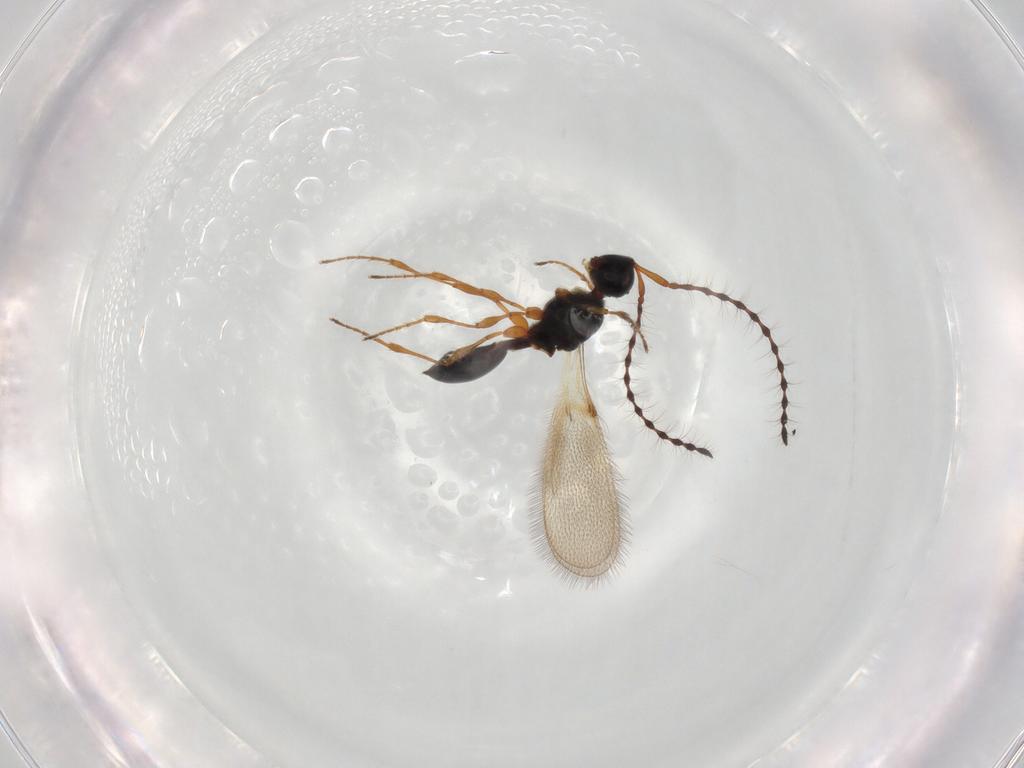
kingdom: Animalia
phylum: Arthropoda
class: Insecta
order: Hymenoptera
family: Diapriidae
